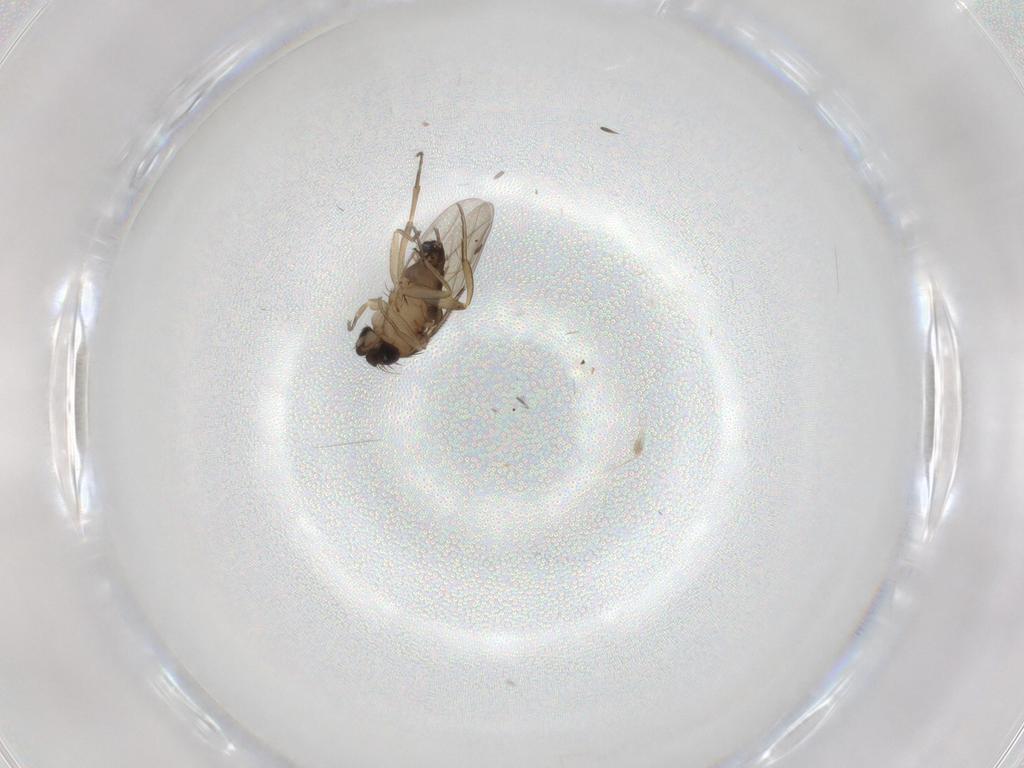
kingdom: Animalia
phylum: Arthropoda
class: Insecta
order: Diptera
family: Phoridae
